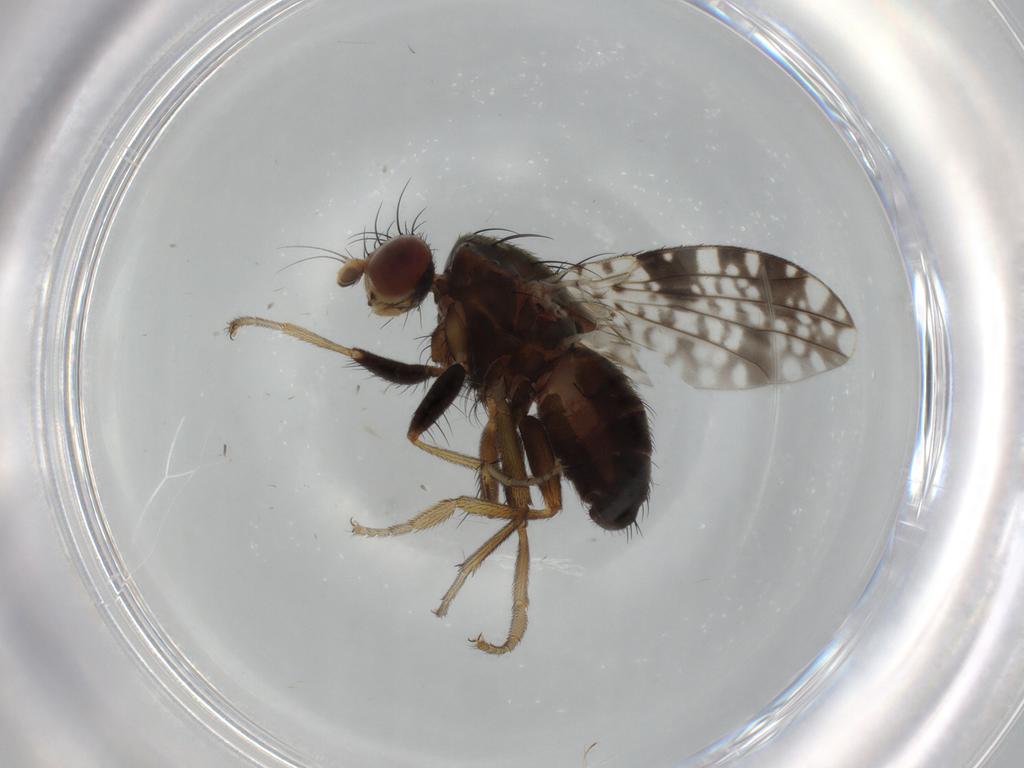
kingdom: Animalia
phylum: Arthropoda
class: Insecta
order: Diptera
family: Tephritidae
